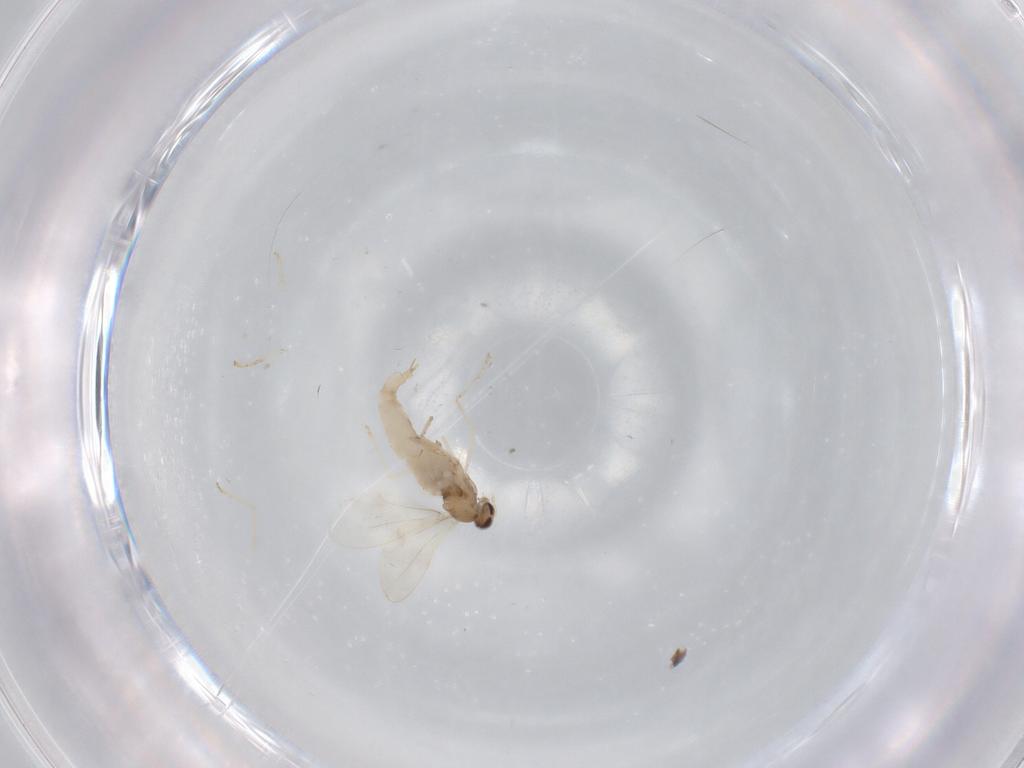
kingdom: Animalia
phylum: Arthropoda
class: Insecta
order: Diptera
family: Cecidomyiidae
